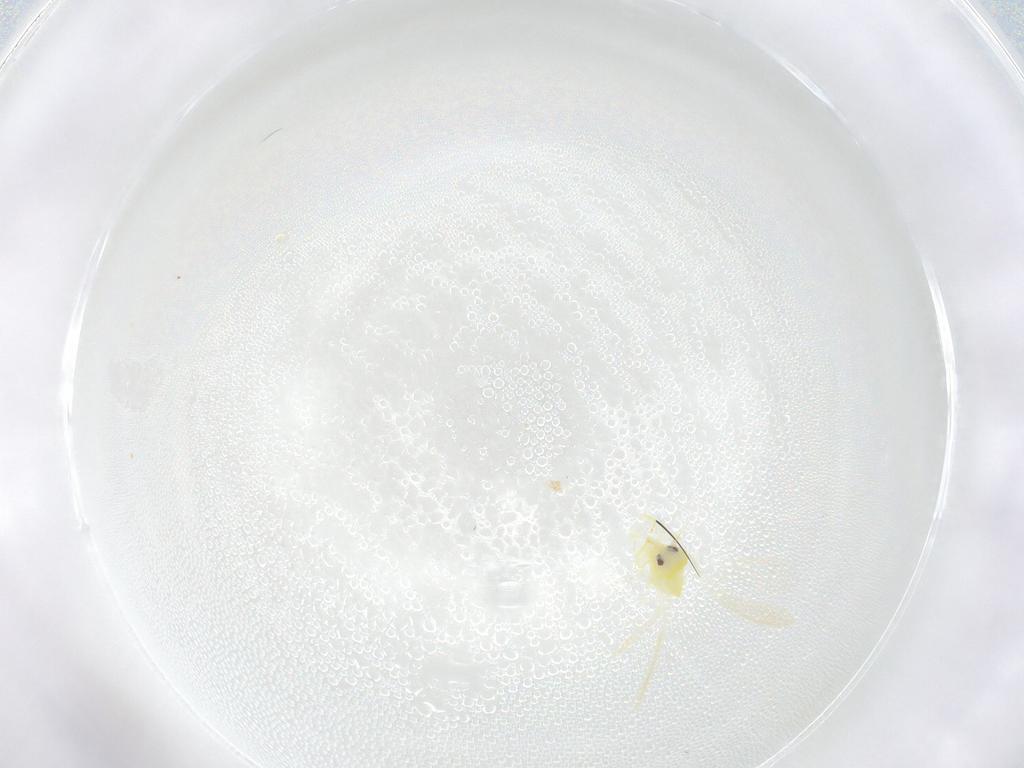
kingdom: Animalia
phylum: Arthropoda
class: Insecta
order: Hemiptera
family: Aleyrodidae
